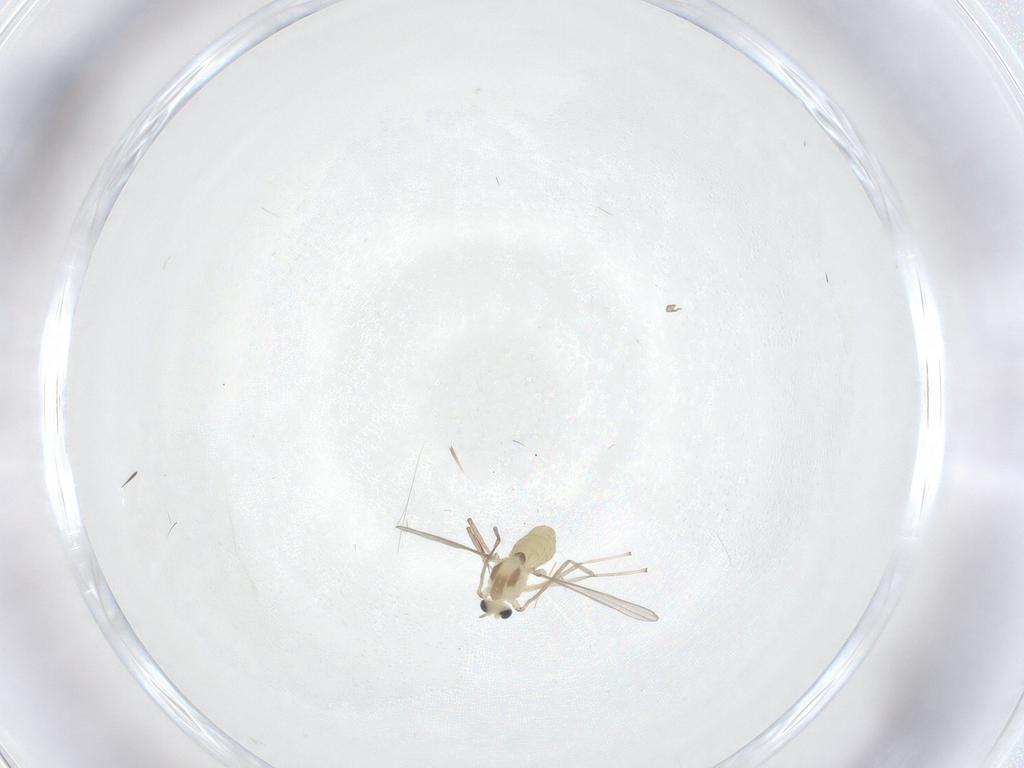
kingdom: Animalia
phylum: Arthropoda
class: Insecta
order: Diptera
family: Chironomidae
